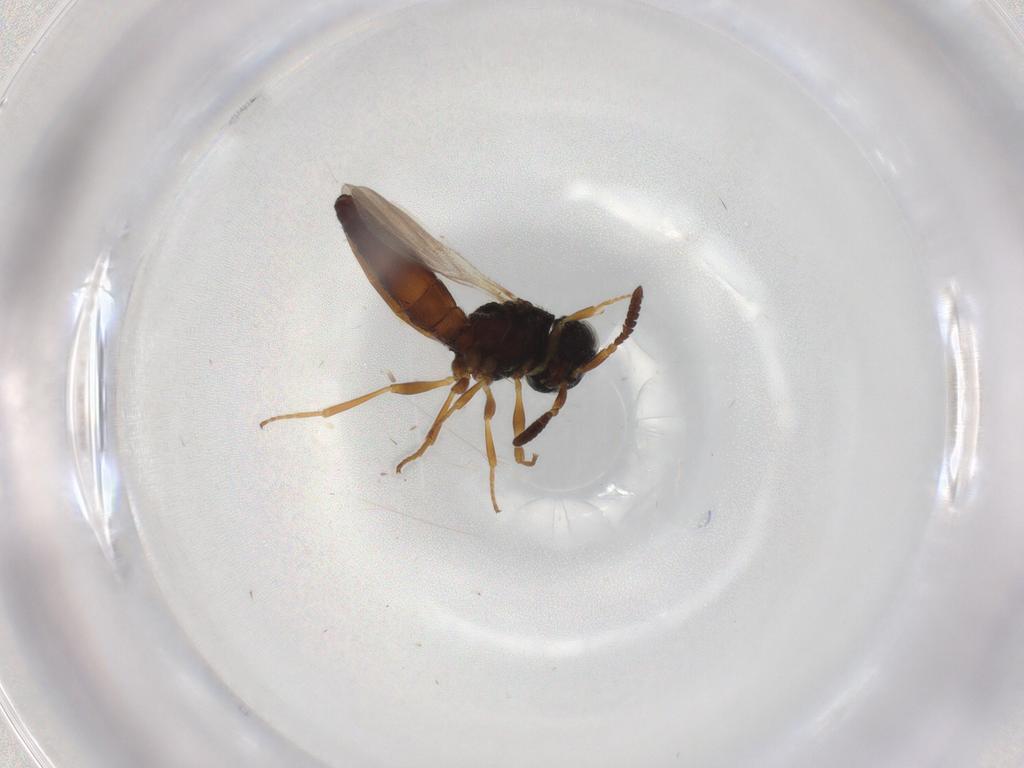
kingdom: Animalia
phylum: Arthropoda
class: Insecta
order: Hymenoptera
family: Scelionidae
